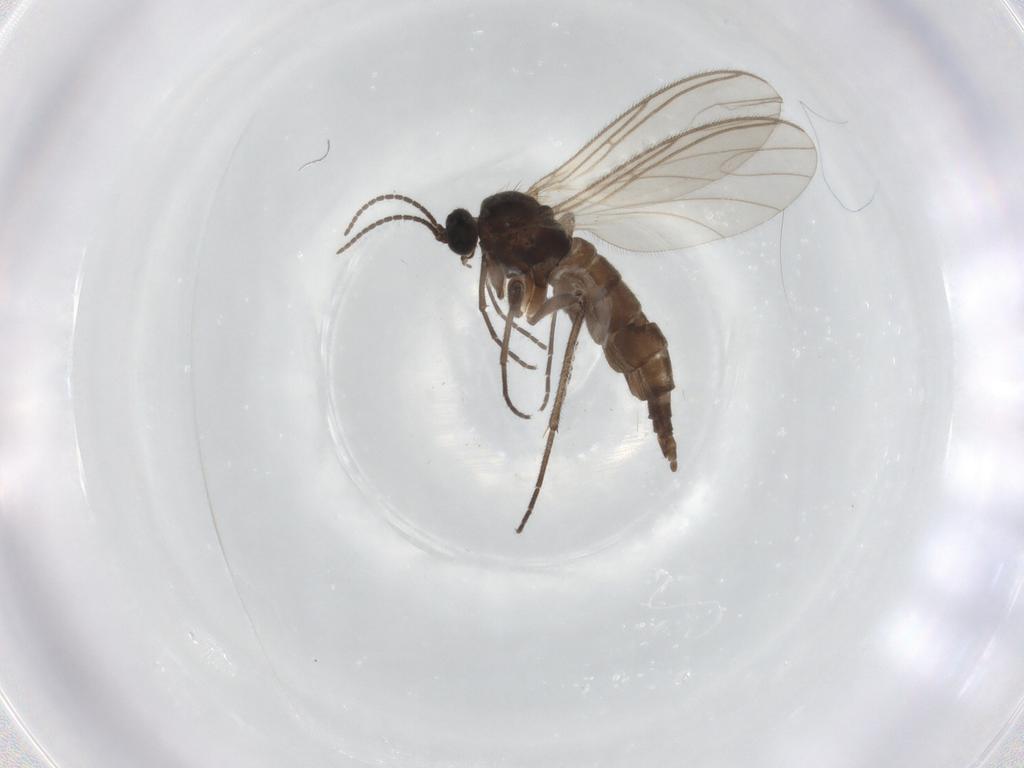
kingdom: Animalia
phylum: Arthropoda
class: Insecta
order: Diptera
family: Sciaridae
